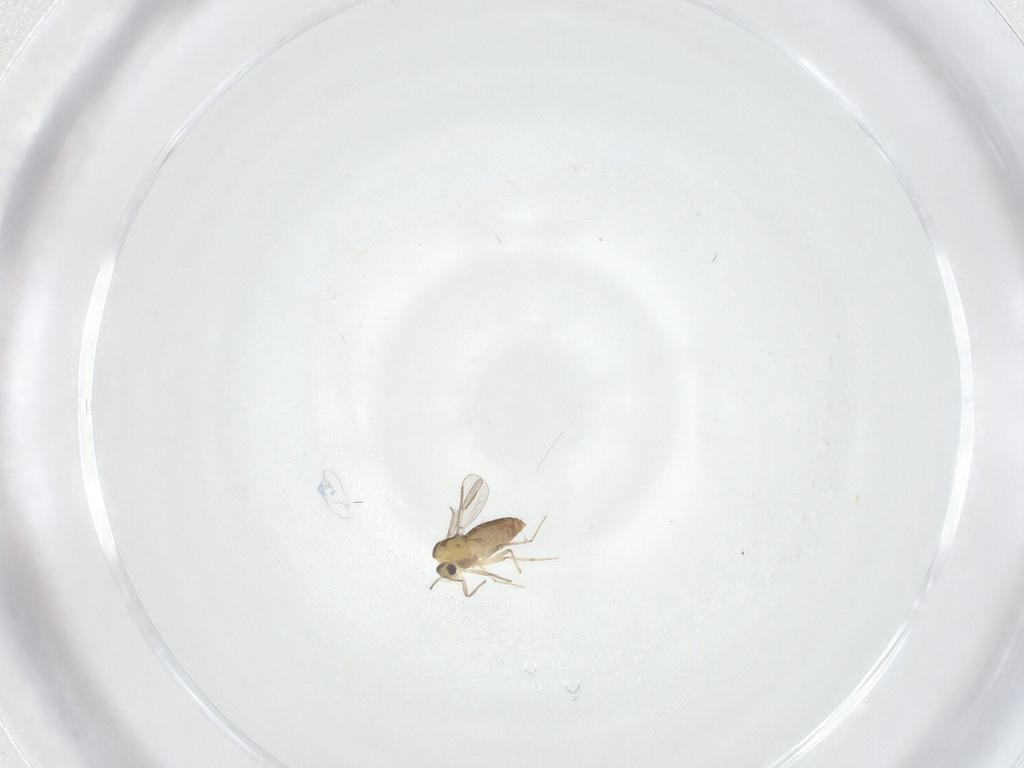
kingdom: Animalia
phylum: Arthropoda
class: Insecta
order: Diptera
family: Chironomidae
